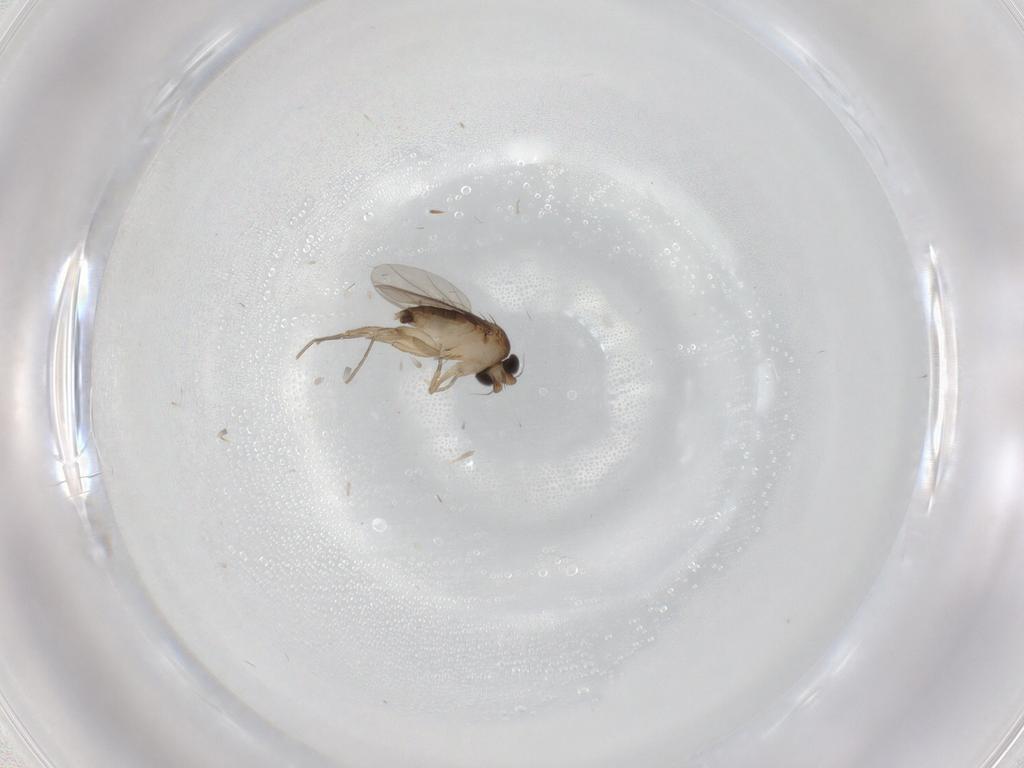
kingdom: Animalia
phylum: Arthropoda
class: Insecta
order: Diptera
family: Phoridae
